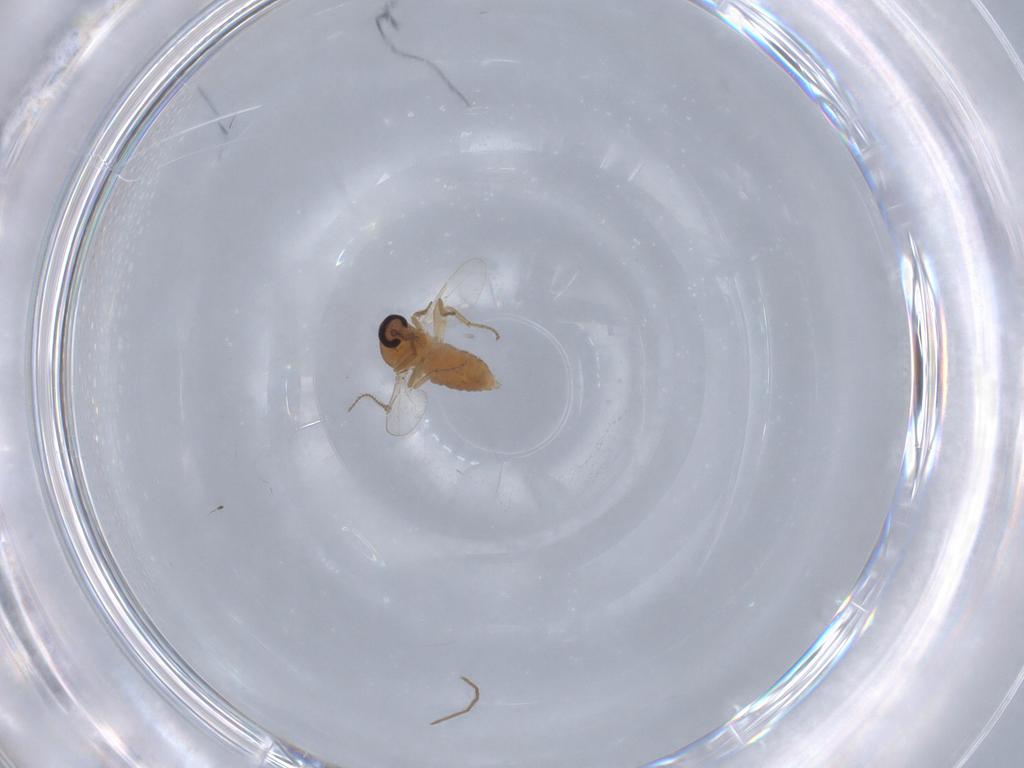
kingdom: Animalia
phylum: Arthropoda
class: Insecta
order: Diptera
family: Ceratopogonidae
